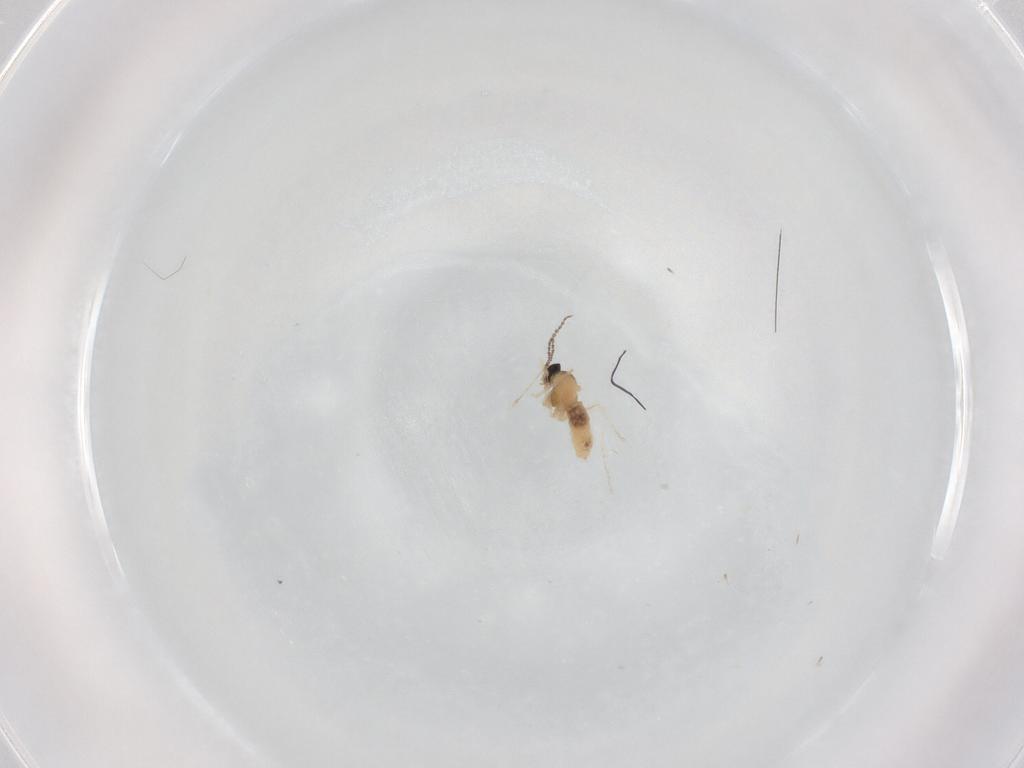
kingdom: Animalia
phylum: Arthropoda
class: Insecta
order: Diptera
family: Cecidomyiidae
